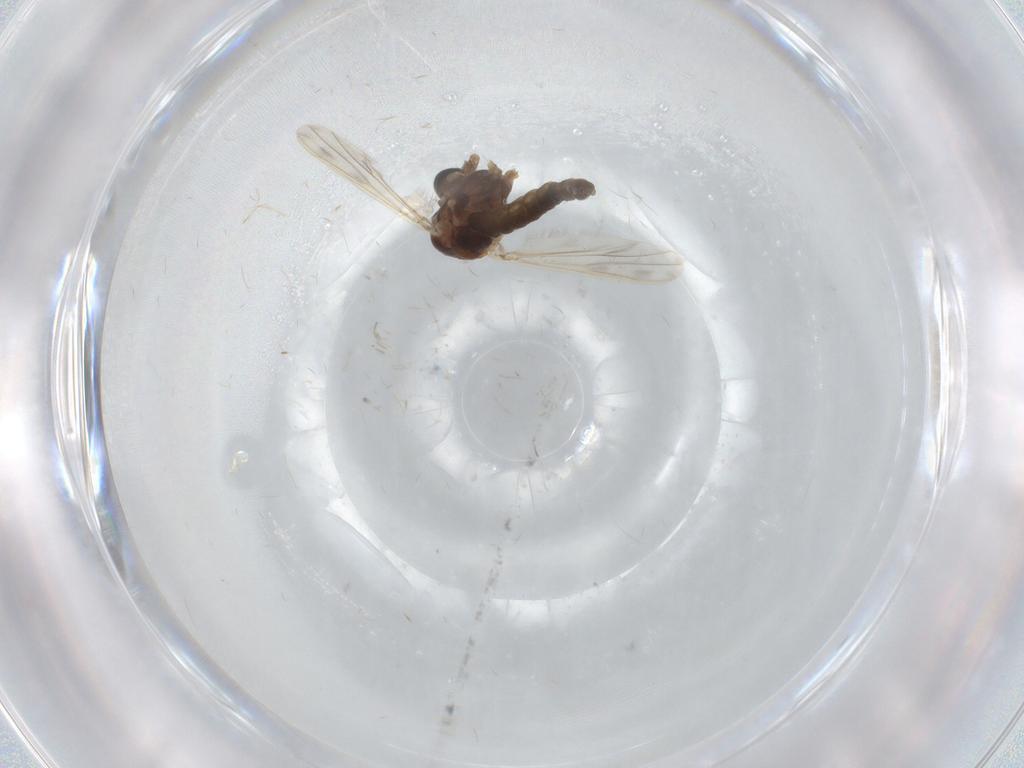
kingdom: Animalia
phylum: Arthropoda
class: Insecta
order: Diptera
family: Chironomidae
